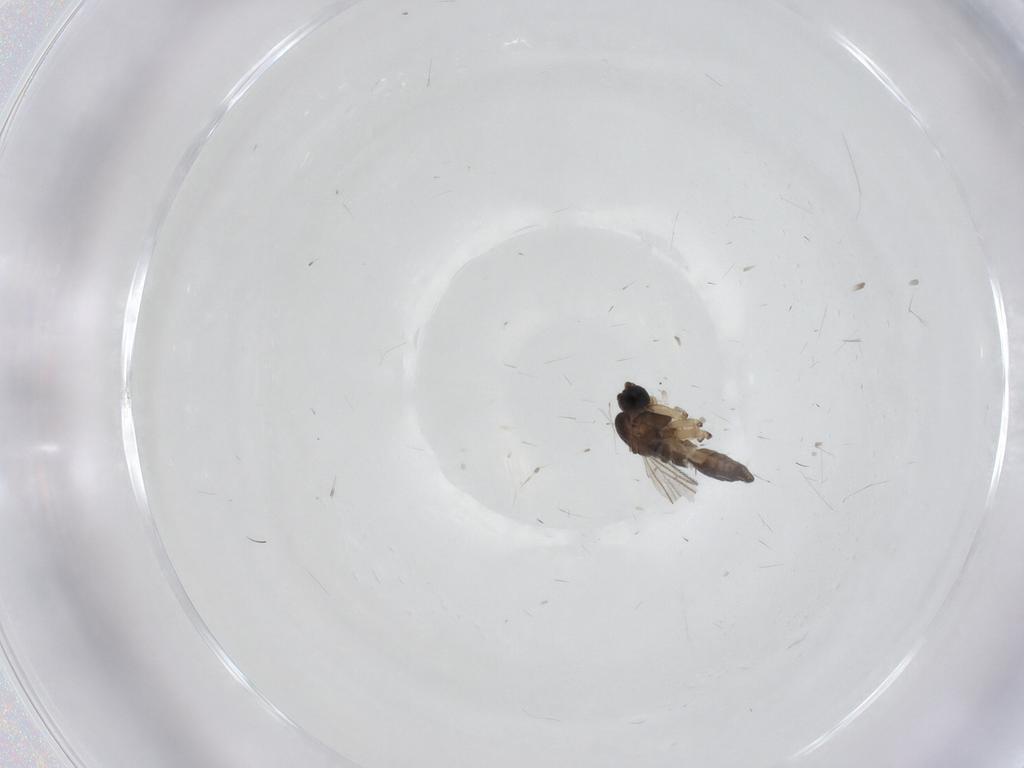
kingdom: Animalia
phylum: Arthropoda
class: Insecta
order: Diptera
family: Dolichopodidae
